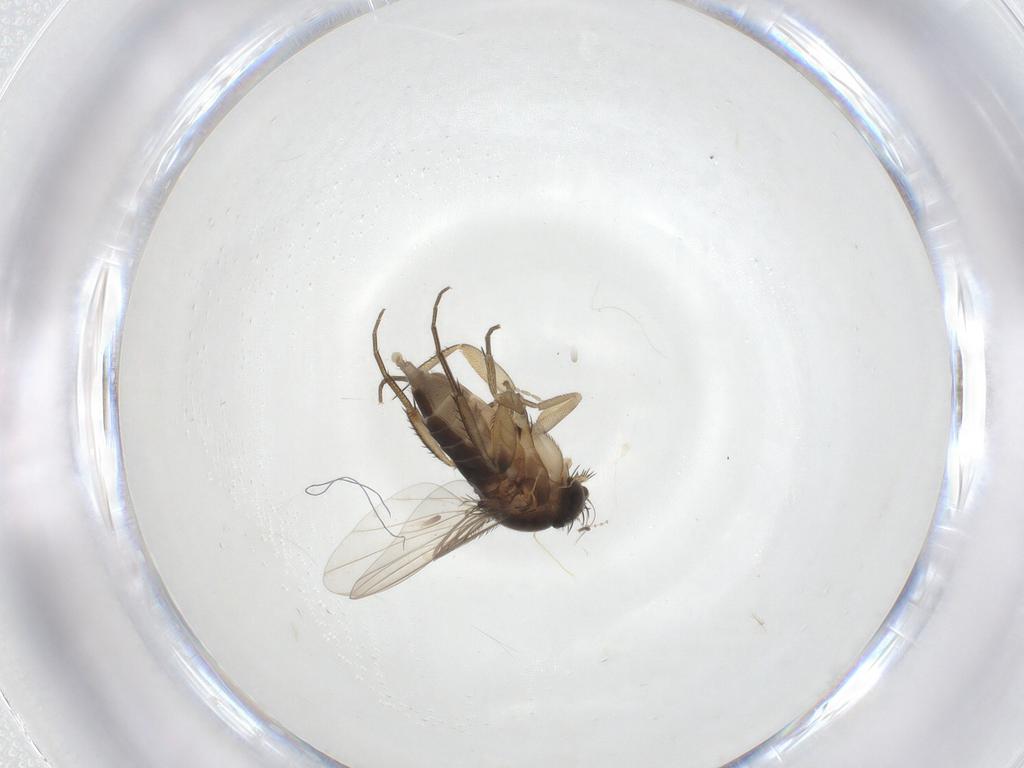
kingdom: Animalia
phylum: Arthropoda
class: Insecta
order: Diptera
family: Phoridae
